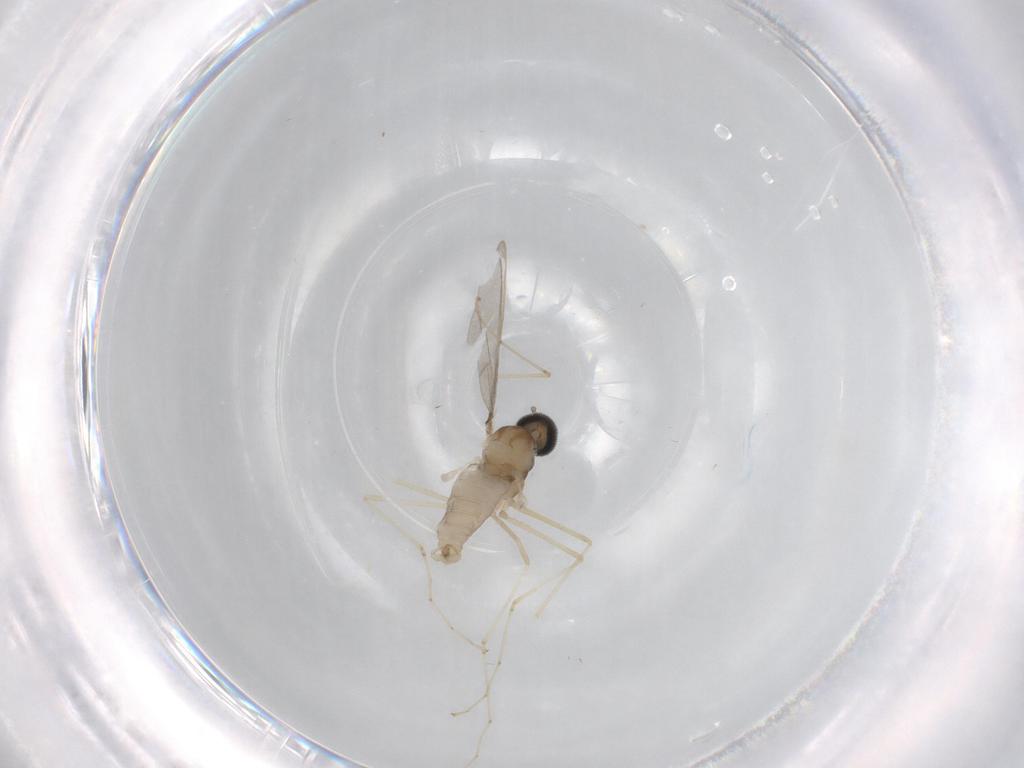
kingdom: Animalia
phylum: Arthropoda
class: Insecta
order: Diptera
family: Cecidomyiidae
